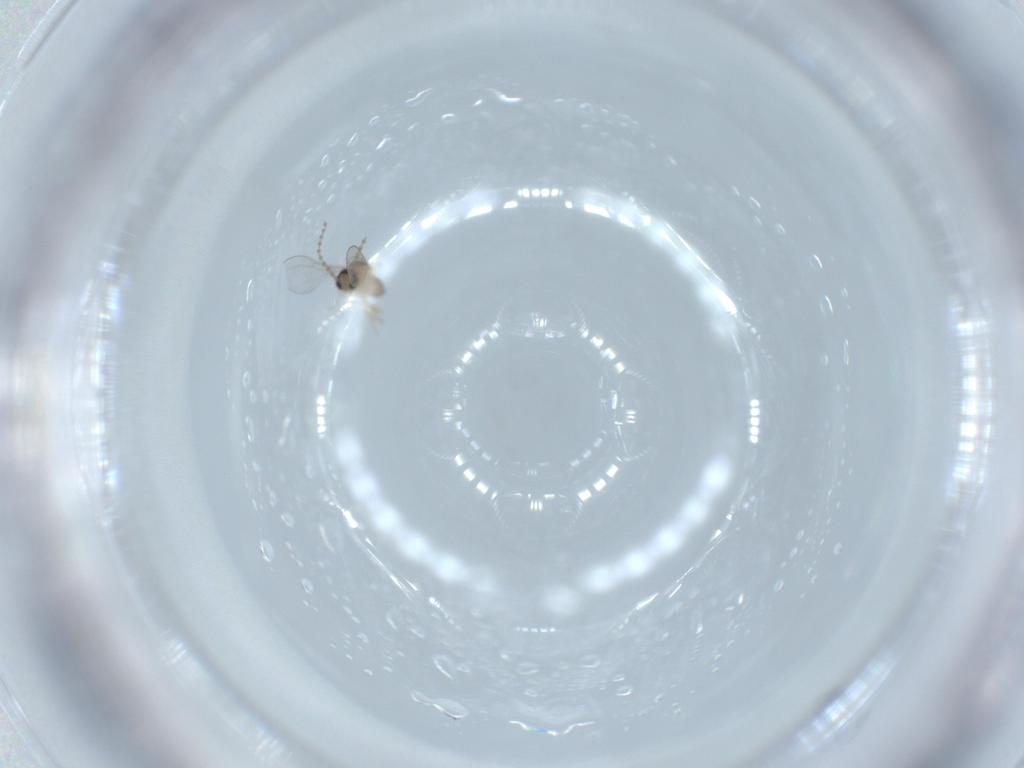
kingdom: Animalia
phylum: Arthropoda
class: Insecta
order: Diptera
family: Cecidomyiidae
